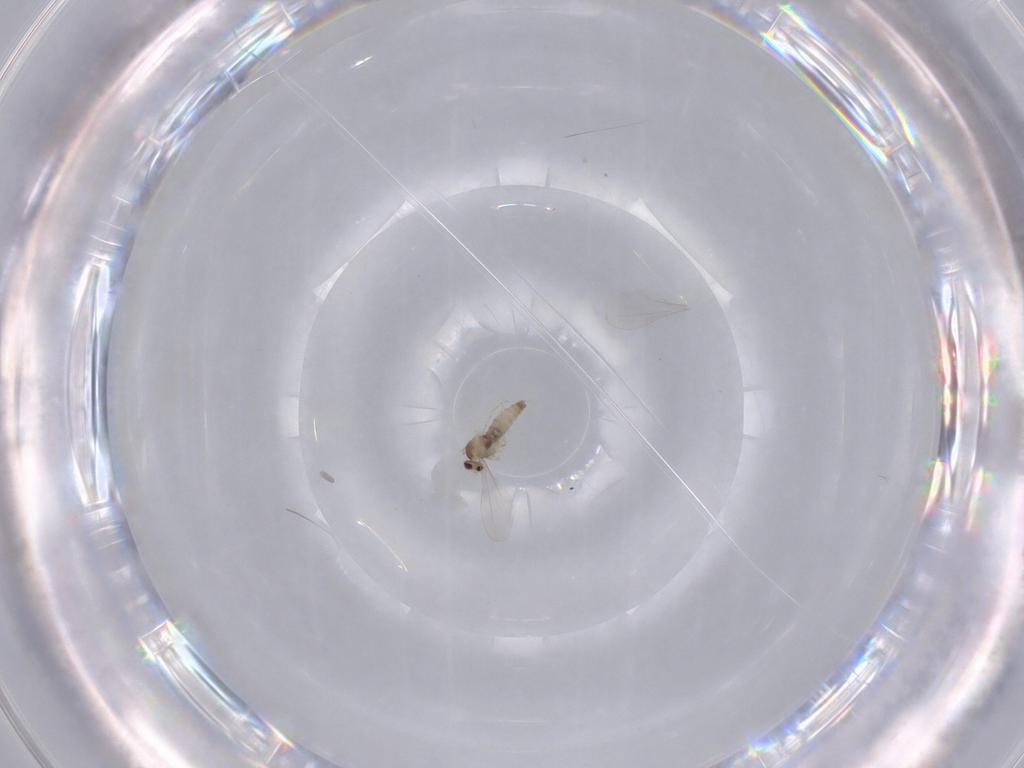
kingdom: Animalia
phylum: Arthropoda
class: Insecta
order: Diptera
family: Cecidomyiidae
